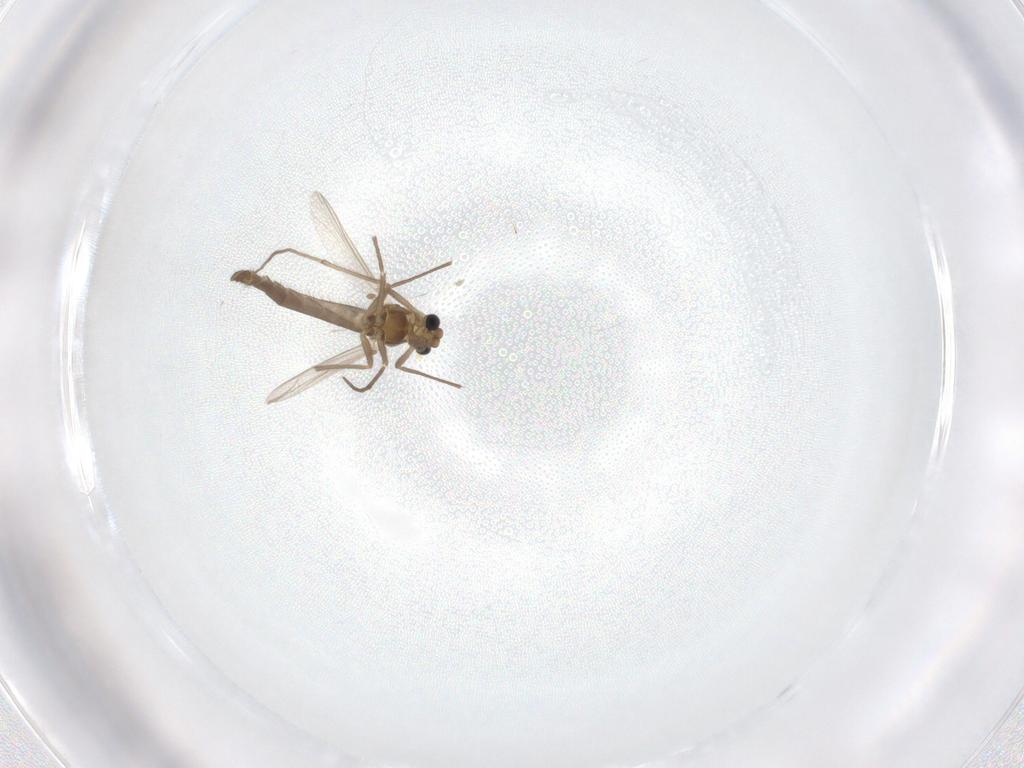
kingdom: Animalia
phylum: Arthropoda
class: Insecta
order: Diptera
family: Chironomidae
